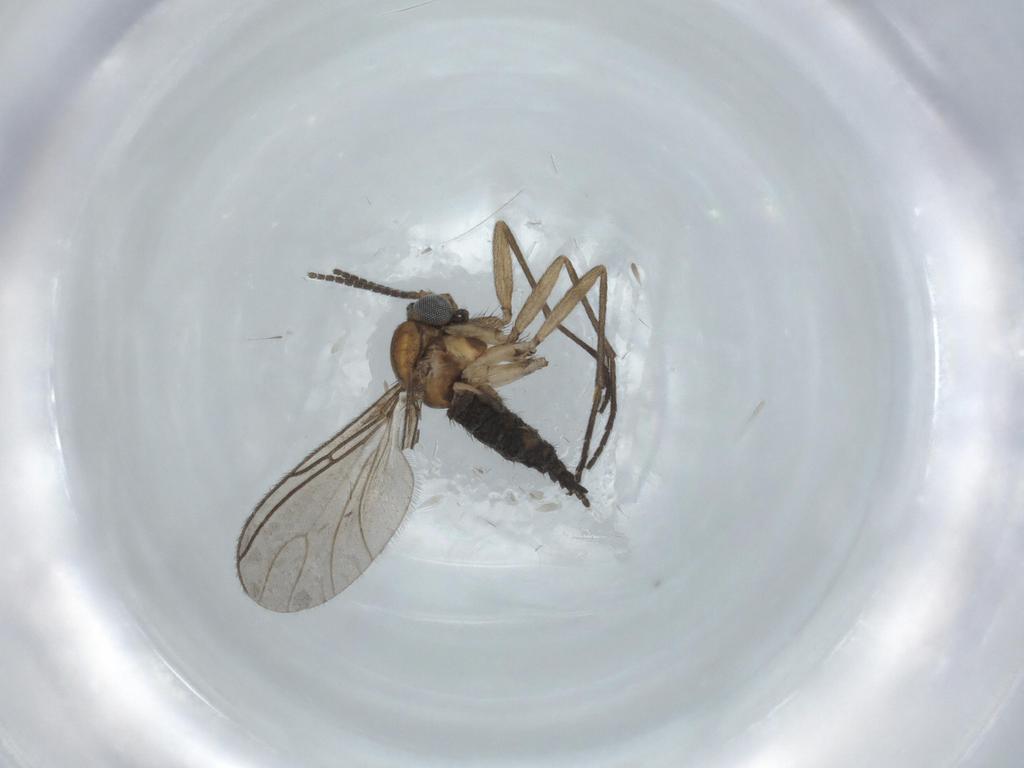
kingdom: Animalia
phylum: Arthropoda
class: Insecta
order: Diptera
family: Sciaridae
